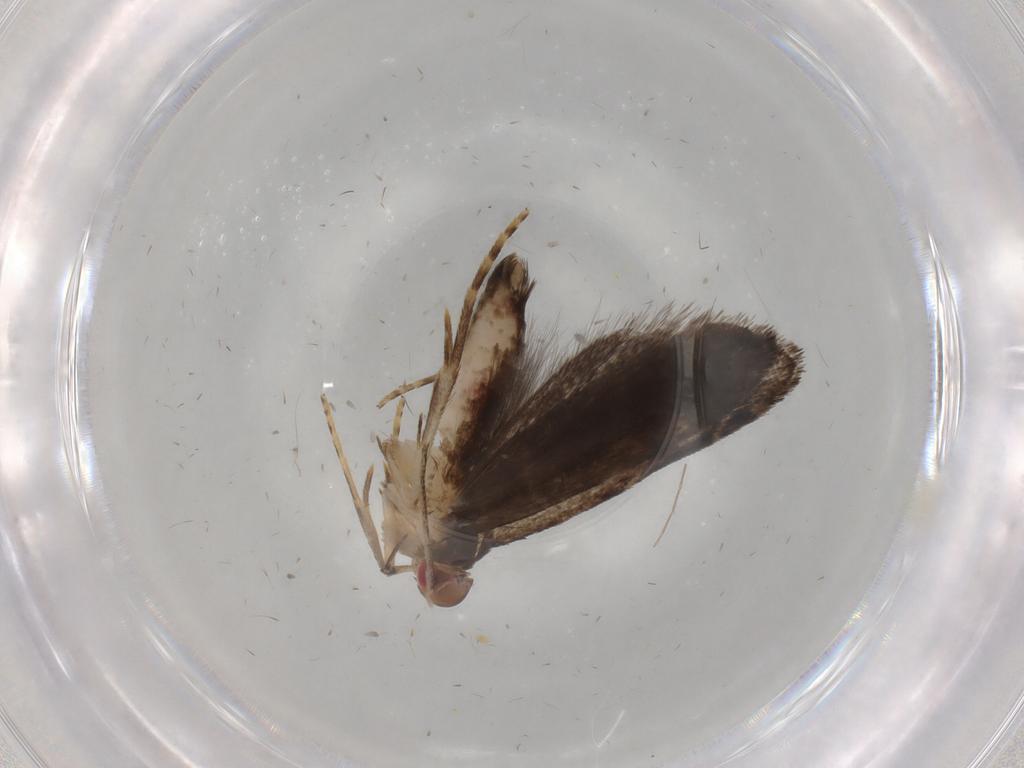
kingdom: Animalia
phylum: Arthropoda
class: Insecta
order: Lepidoptera
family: Gelechiidae
